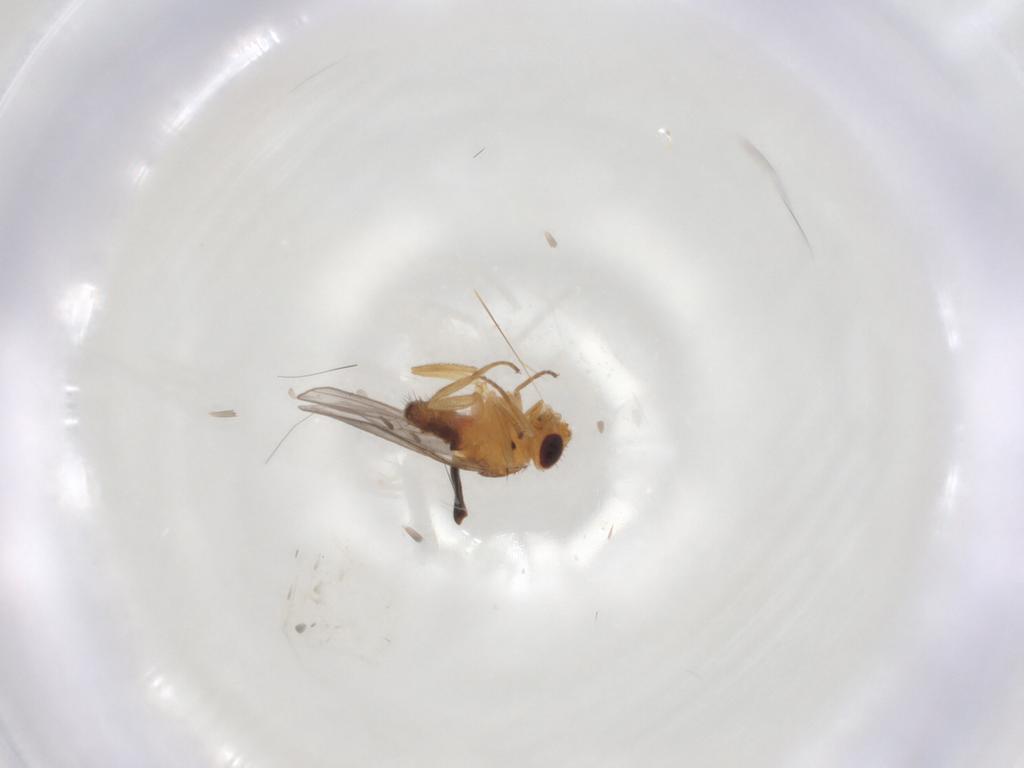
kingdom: Animalia
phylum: Arthropoda
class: Insecta
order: Diptera
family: Chloropidae
